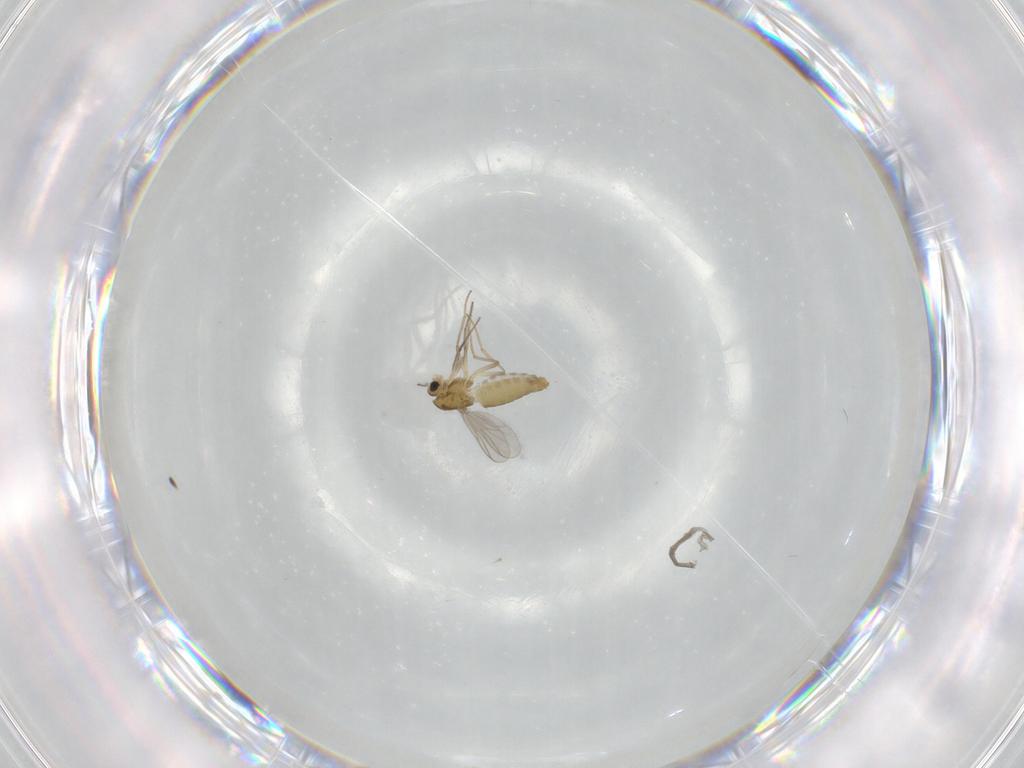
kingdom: Animalia
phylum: Arthropoda
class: Insecta
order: Diptera
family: Chironomidae
